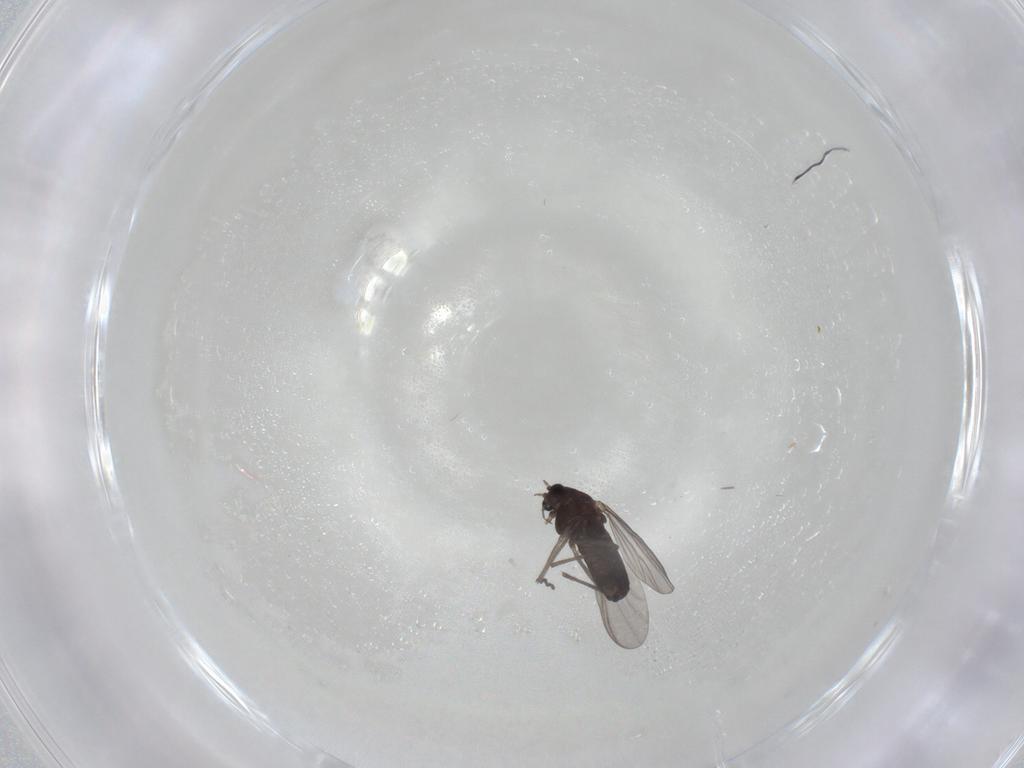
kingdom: Animalia
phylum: Arthropoda
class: Insecta
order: Diptera
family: Chironomidae
